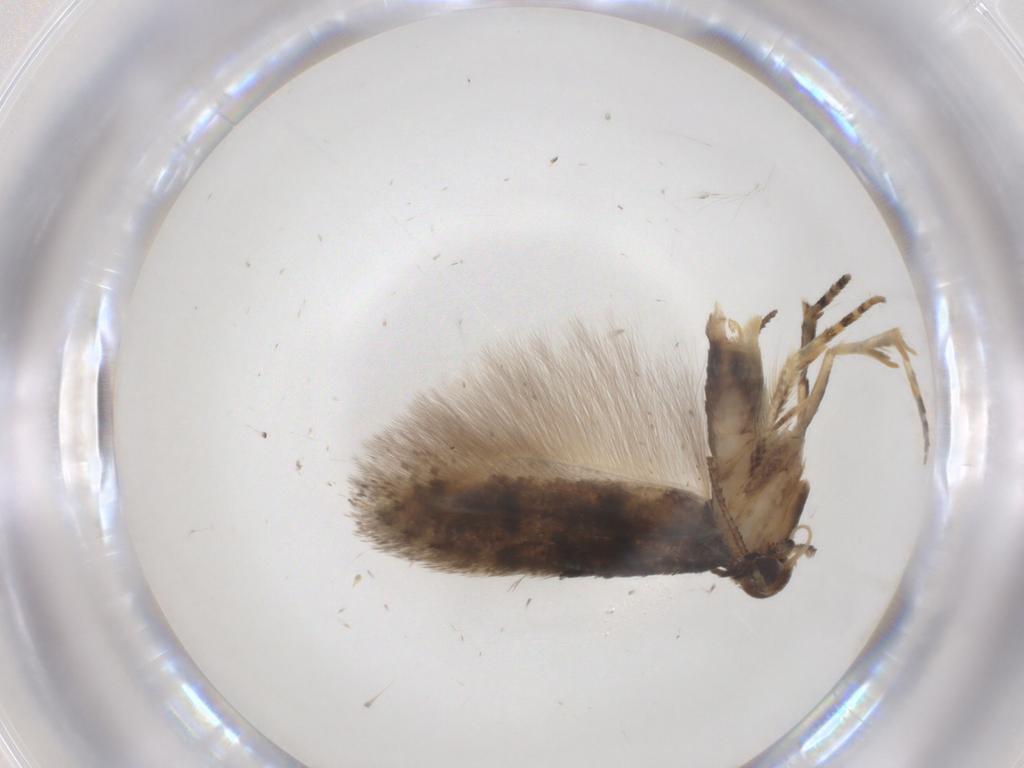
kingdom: Animalia
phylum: Arthropoda
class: Insecta
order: Lepidoptera
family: Gelechiidae
